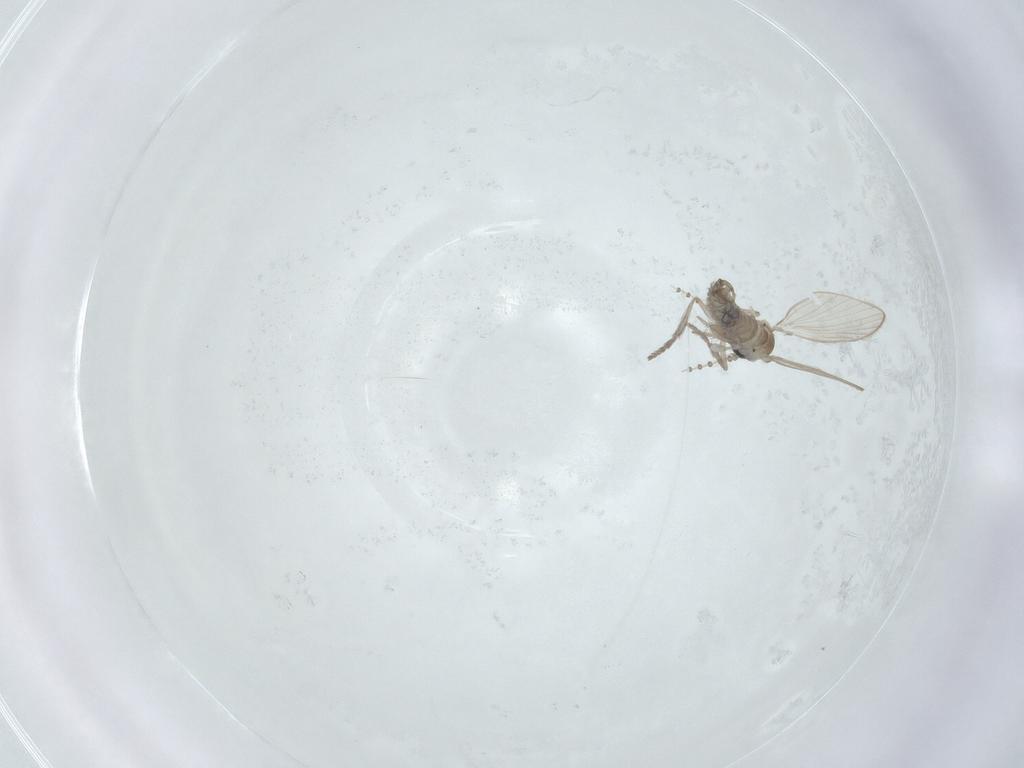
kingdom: Animalia
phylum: Arthropoda
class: Insecta
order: Diptera
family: Psychodidae
